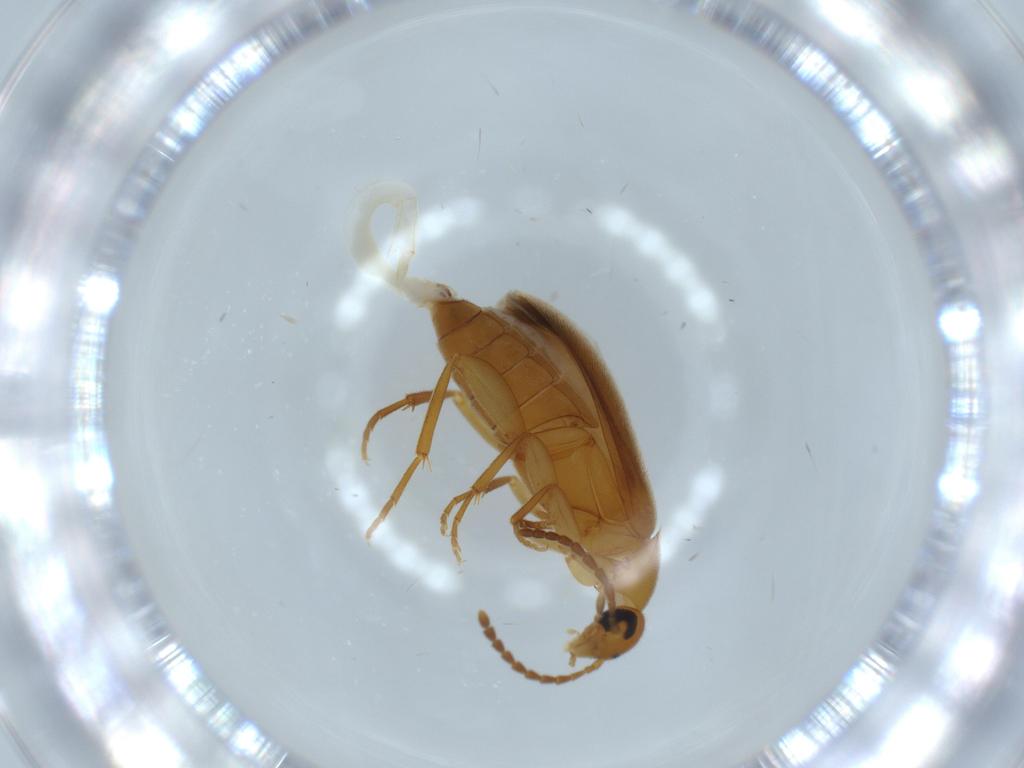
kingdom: Animalia
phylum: Arthropoda
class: Insecta
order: Coleoptera
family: Scraptiidae
